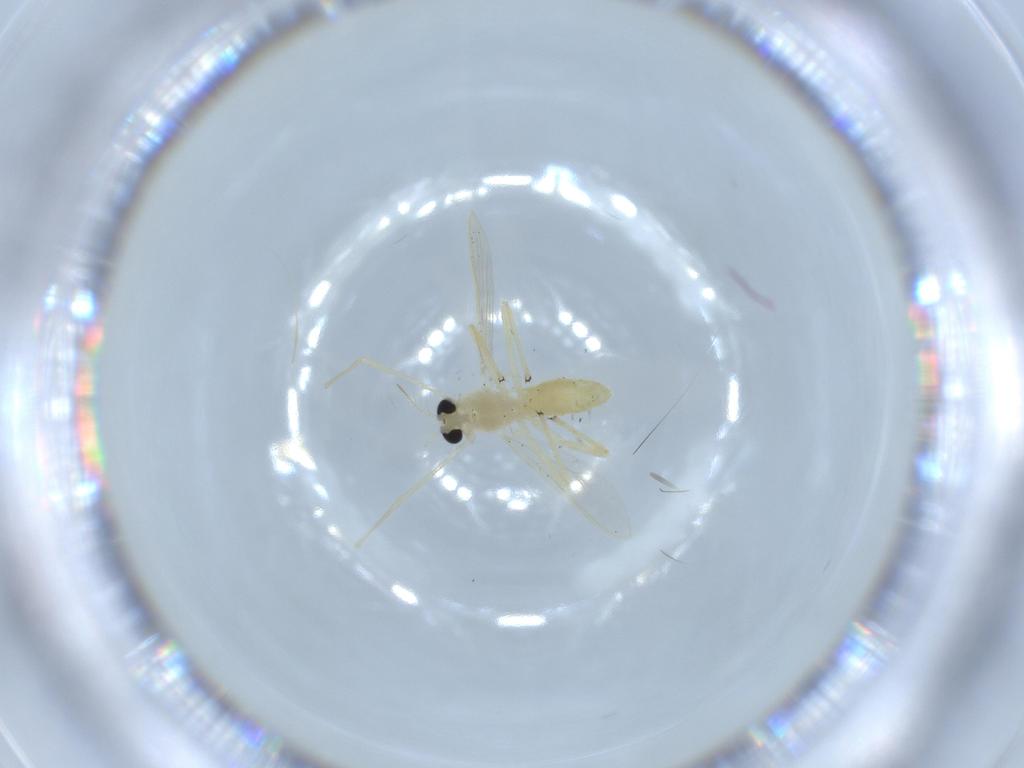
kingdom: Animalia
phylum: Arthropoda
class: Insecta
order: Diptera
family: Chironomidae
